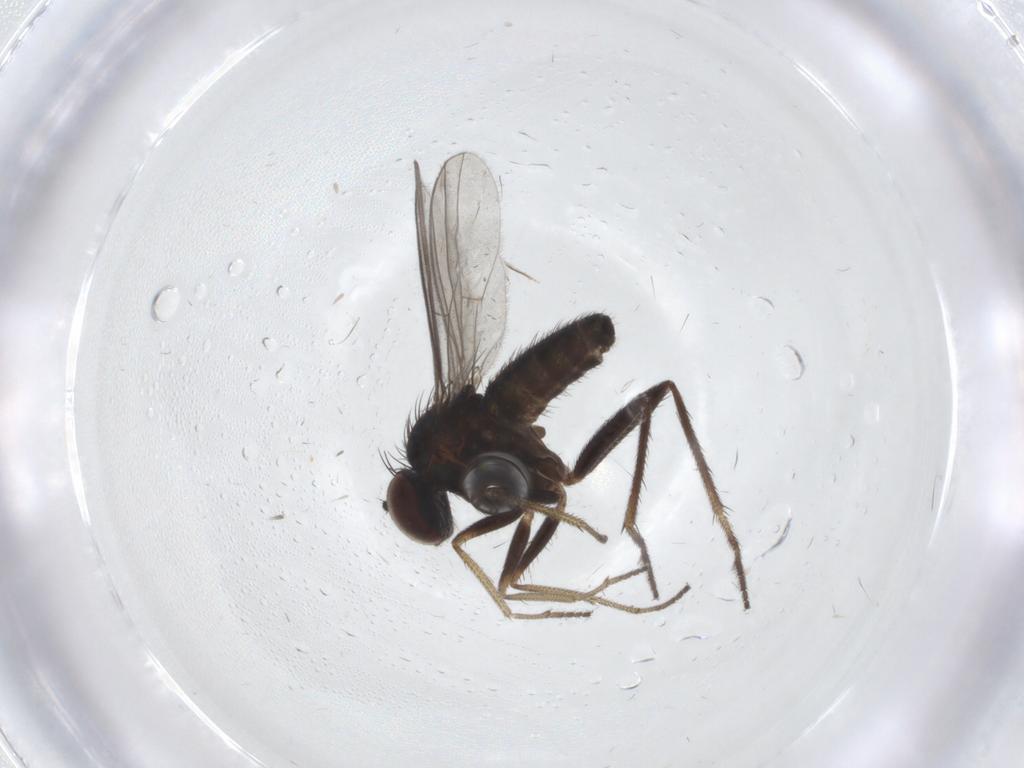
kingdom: Animalia
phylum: Arthropoda
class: Insecta
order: Diptera
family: Dolichopodidae
